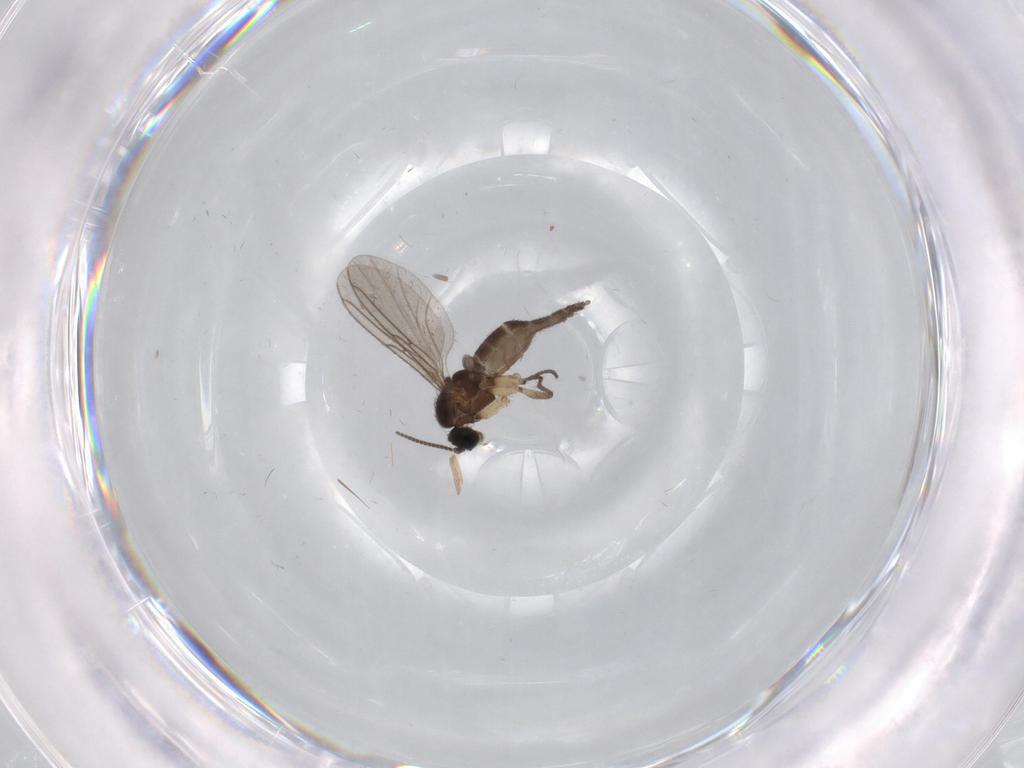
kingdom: Animalia
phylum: Arthropoda
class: Insecta
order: Diptera
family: Sciaridae
